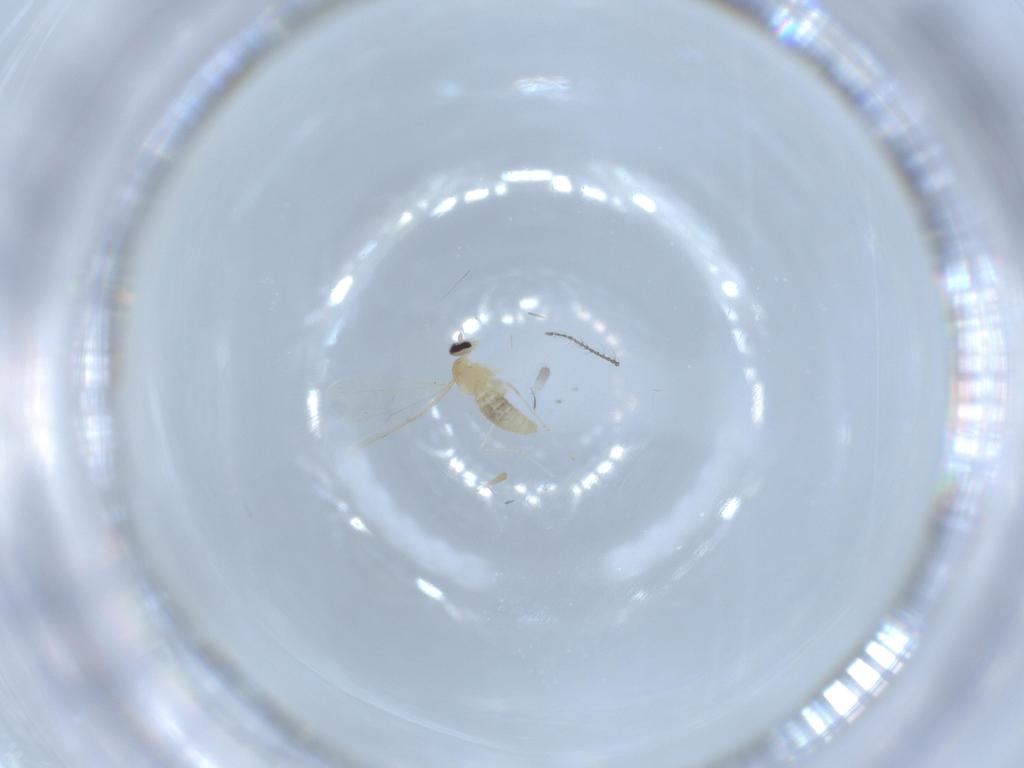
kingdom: Animalia
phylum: Arthropoda
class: Insecta
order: Diptera
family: Cecidomyiidae
